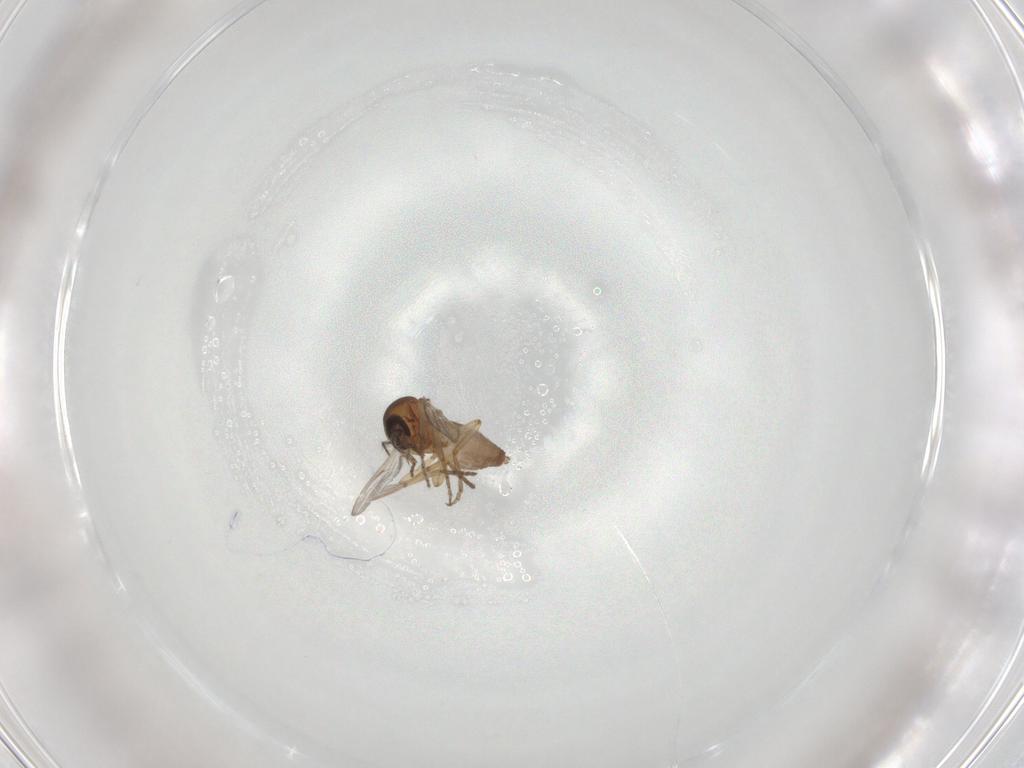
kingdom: Animalia
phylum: Arthropoda
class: Insecta
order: Diptera
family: Ceratopogonidae
